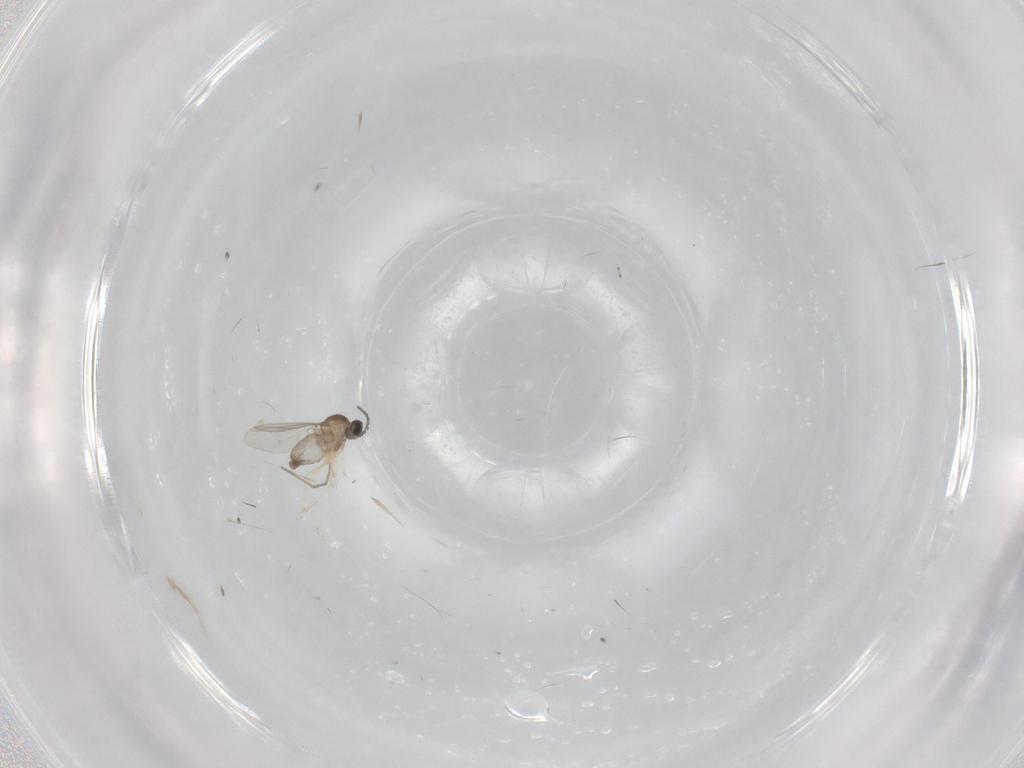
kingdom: Animalia
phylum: Arthropoda
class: Insecta
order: Diptera
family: Cecidomyiidae
